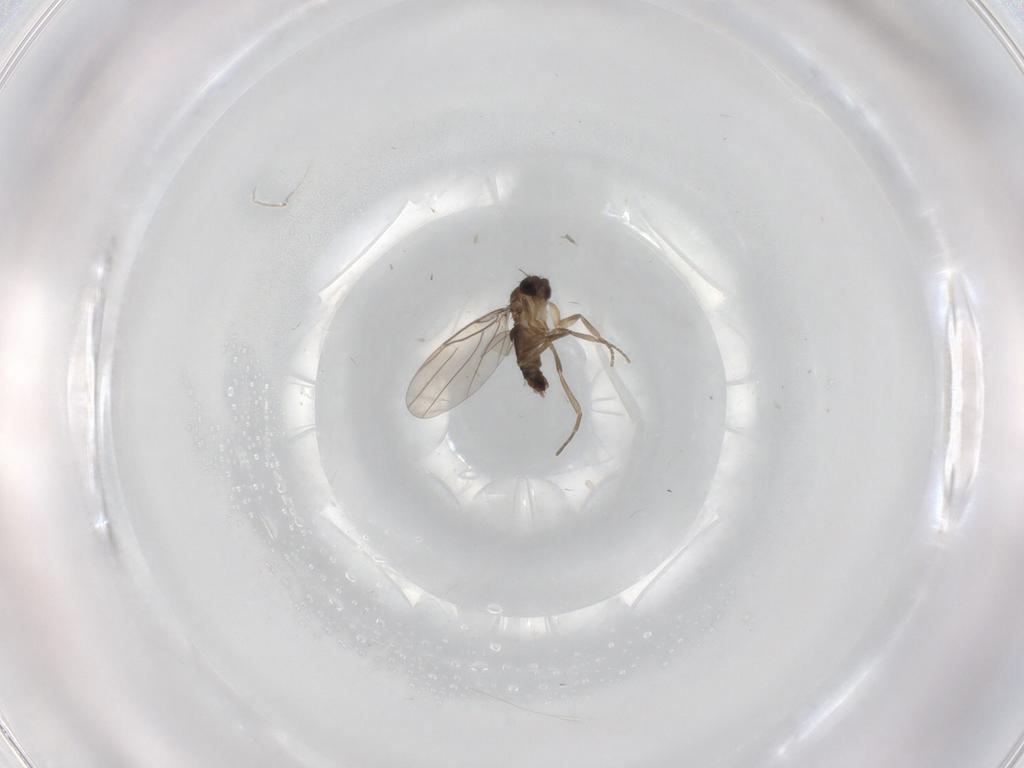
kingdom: Animalia
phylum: Arthropoda
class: Insecta
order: Diptera
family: Phoridae
